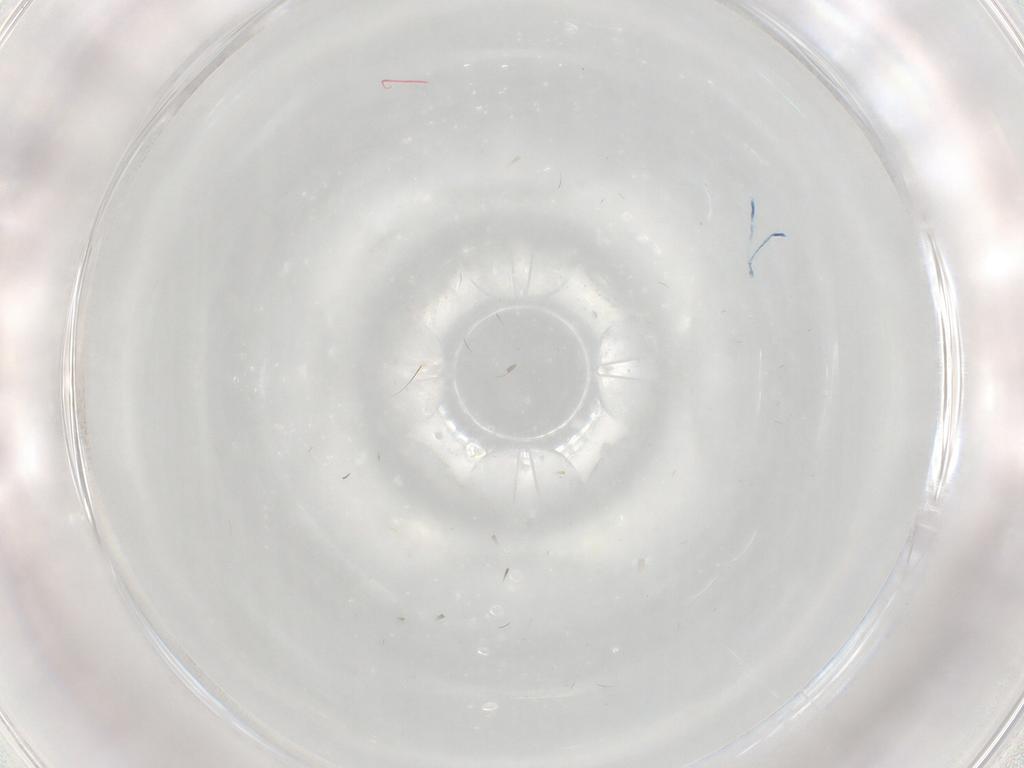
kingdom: Animalia
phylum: Arthropoda
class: Insecta
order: Diptera
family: Drosophilidae
